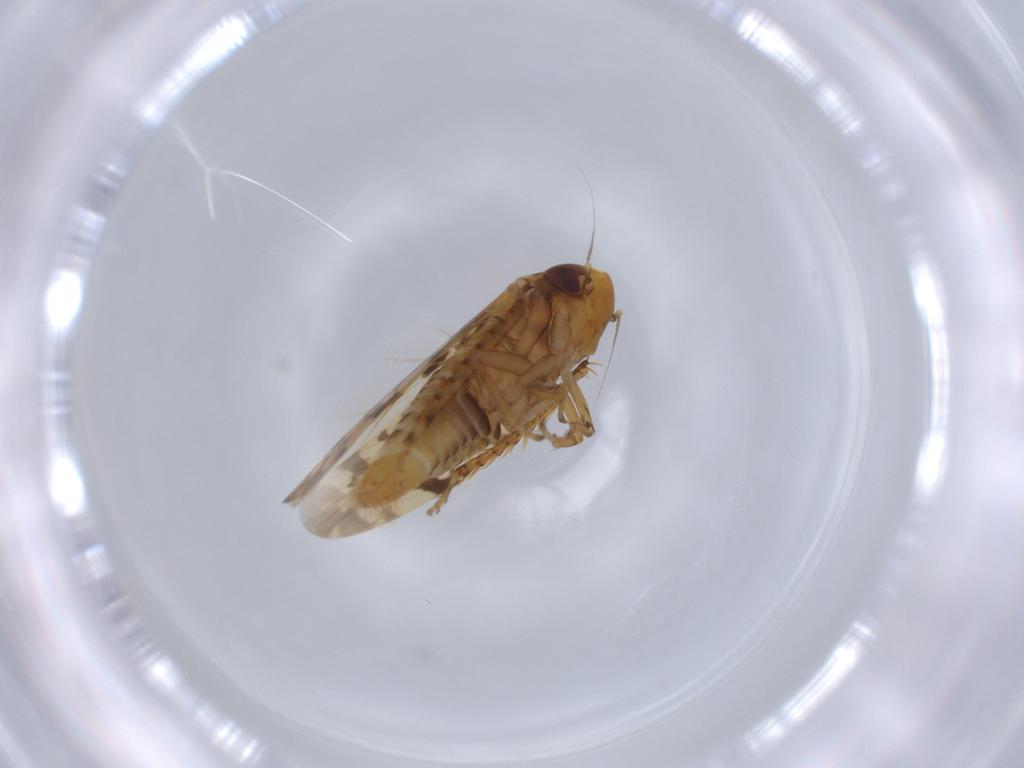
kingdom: Animalia
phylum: Arthropoda
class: Insecta
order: Hemiptera
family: Cicadellidae
